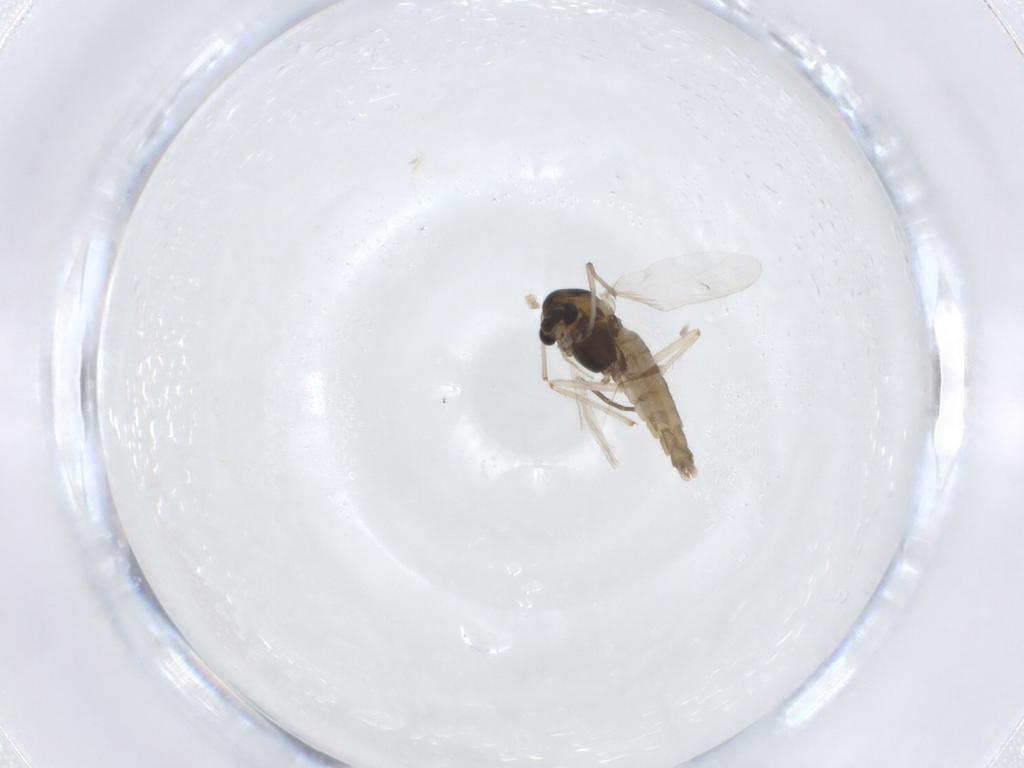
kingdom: Animalia
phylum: Arthropoda
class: Insecta
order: Diptera
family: Chironomidae
